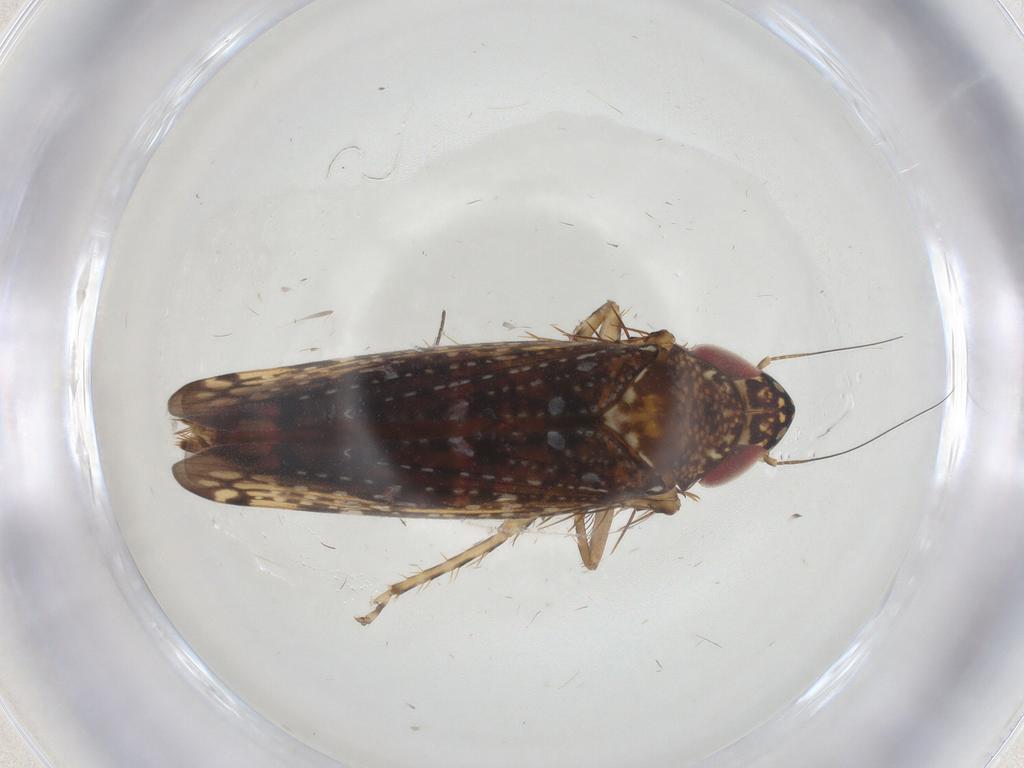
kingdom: Animalia
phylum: Arthropoda
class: Insecta
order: Hemiptera
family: Cicadellidae
